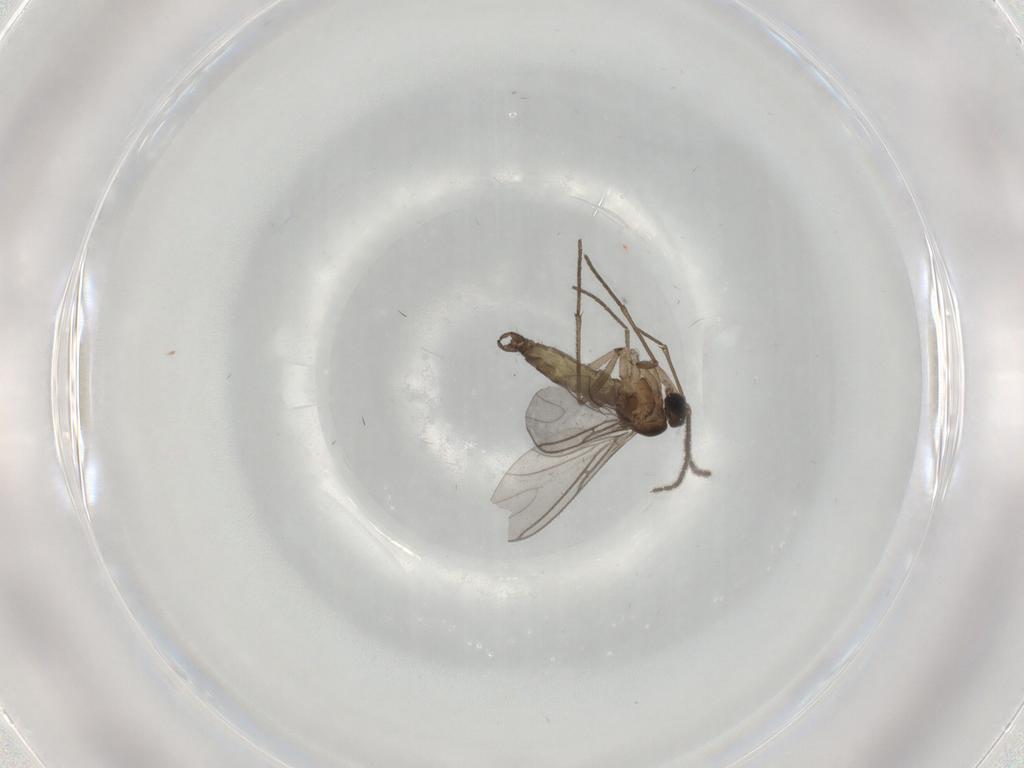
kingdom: Animalia
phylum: Arthropoda
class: Insecta
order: Diptera
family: Sciaridae
